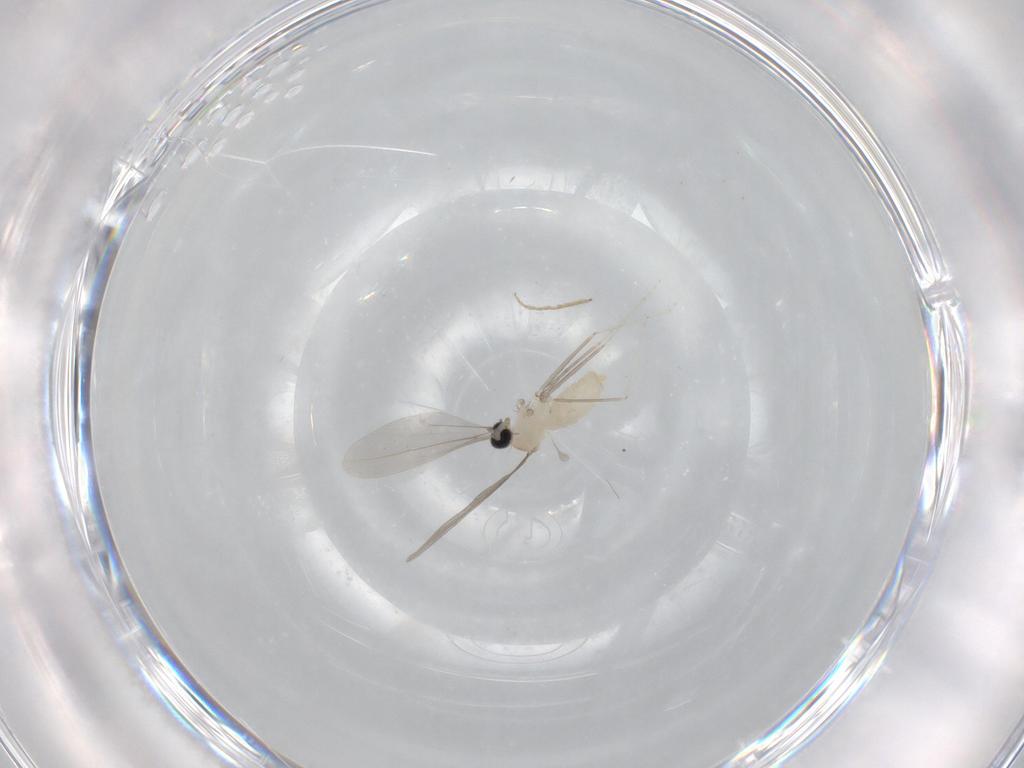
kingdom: Animalia
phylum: Arthropoda
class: Insecta
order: Diptera
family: Cecidomyiidae
